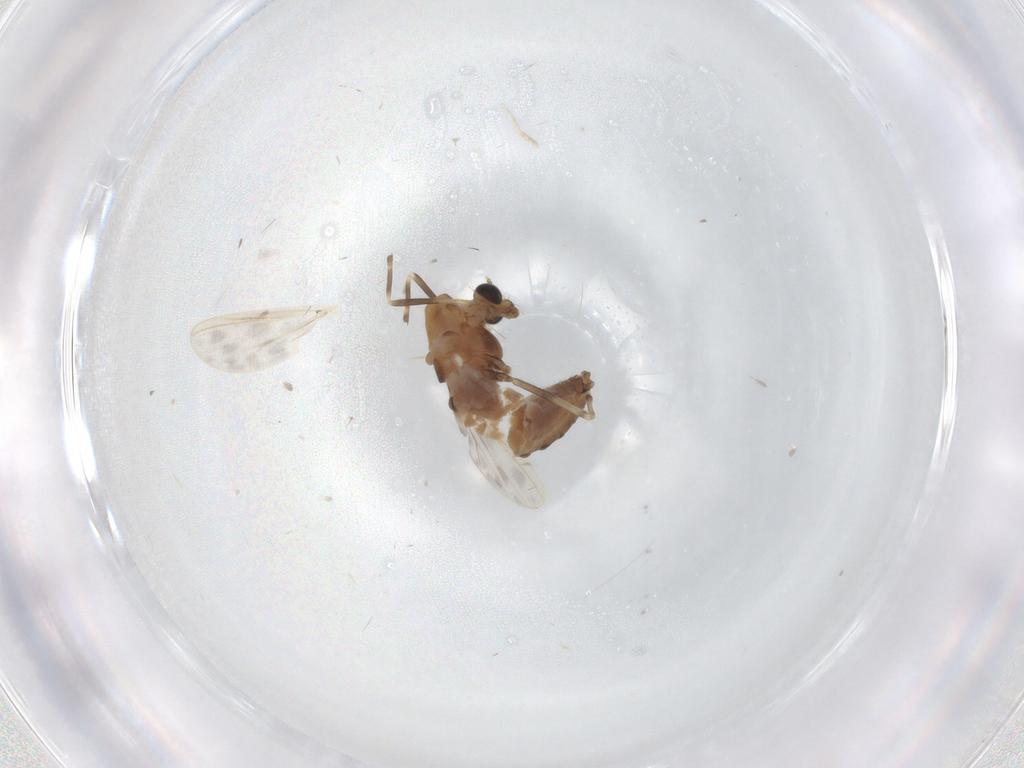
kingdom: Animalia
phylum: Arthropoda
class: Insecta
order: Diptera
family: Chironomidae
